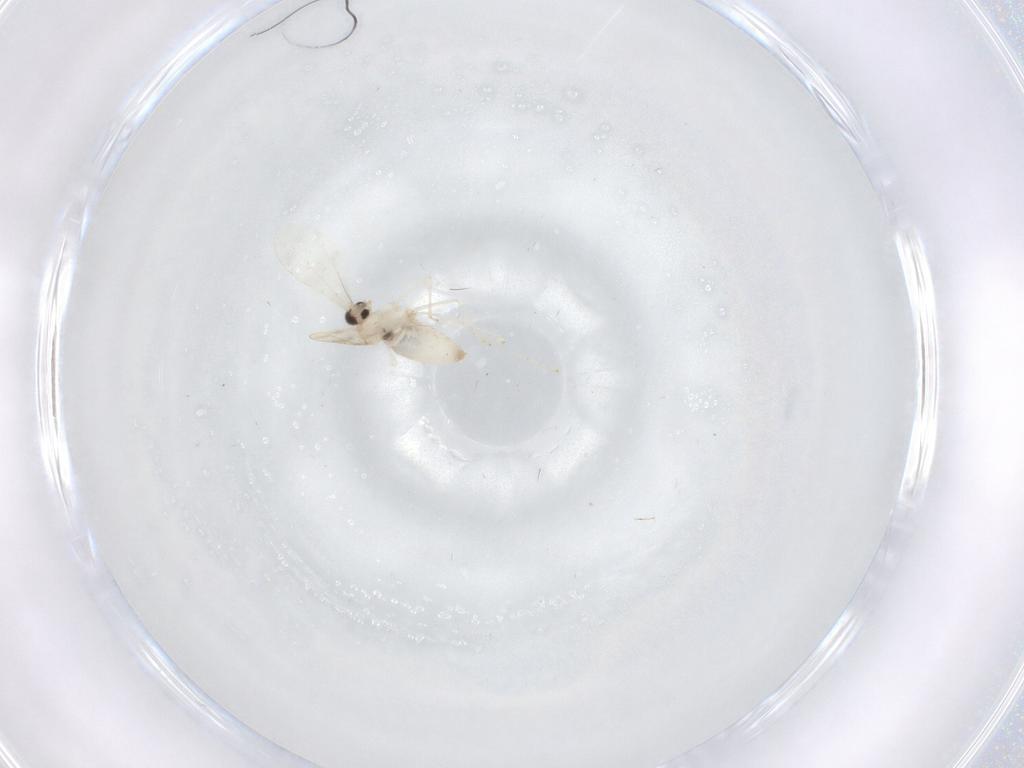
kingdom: Animalia
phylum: Arthropoda
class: Insecta
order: Diptera
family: Cecidomyiidae
